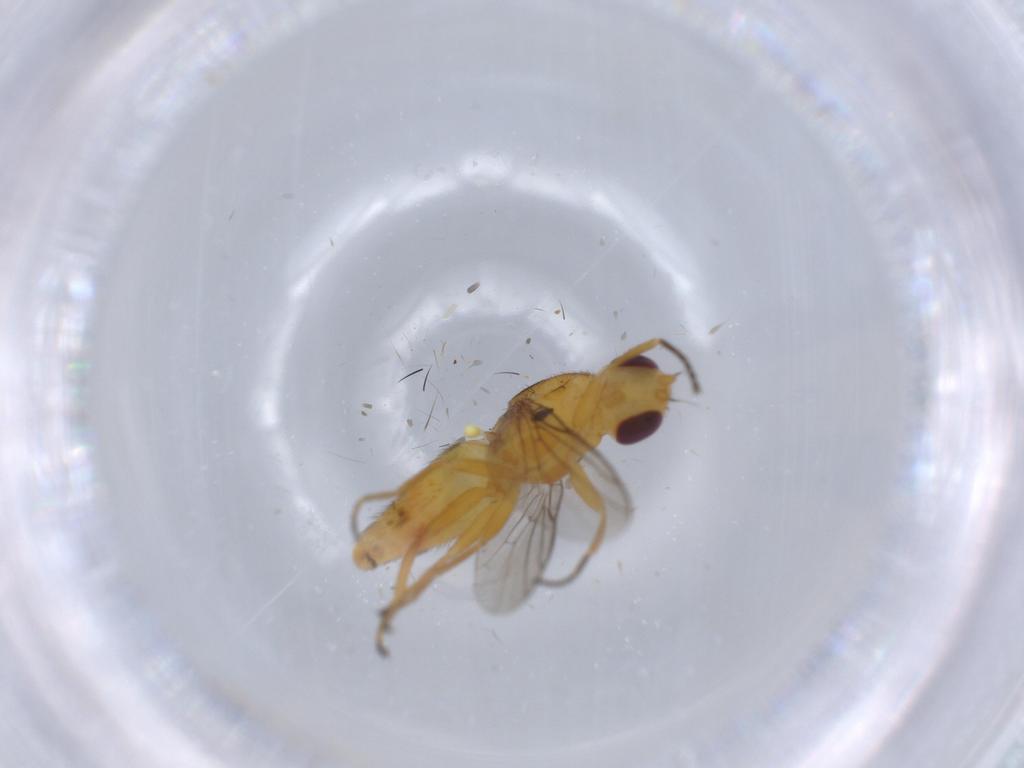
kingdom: Animalia
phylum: Arthropoda
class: Insecta
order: Diptera
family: Chloropidae
